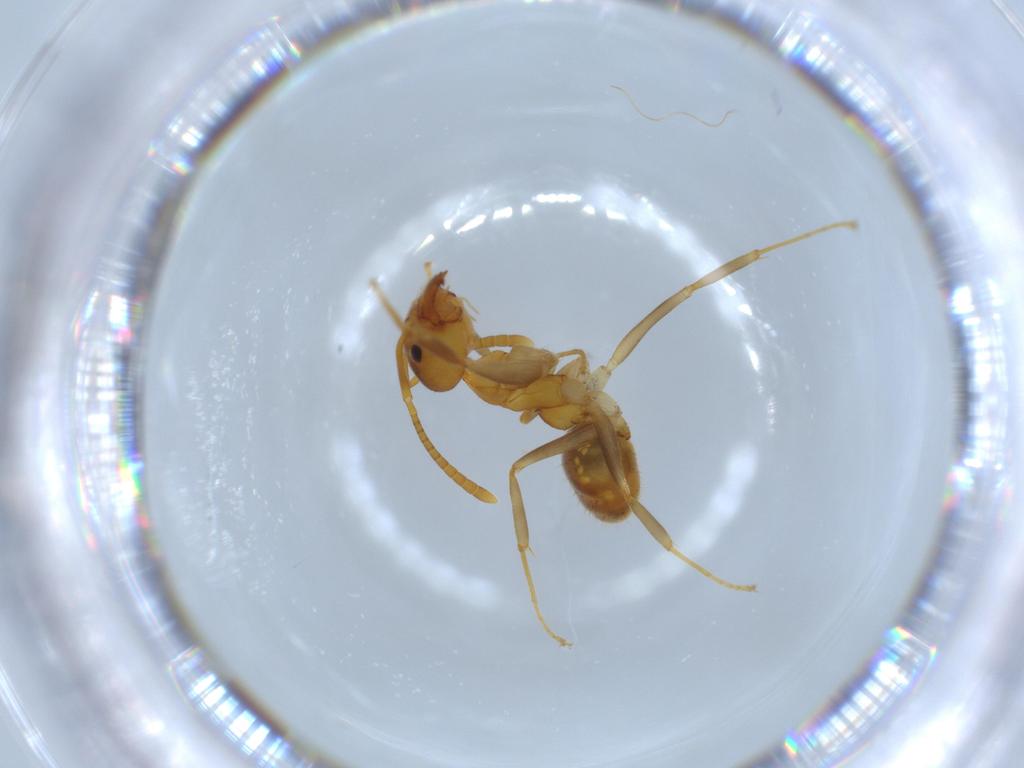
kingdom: Animalia
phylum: Arthropoda
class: Insecta
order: Hymenoptera
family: Formicidae
